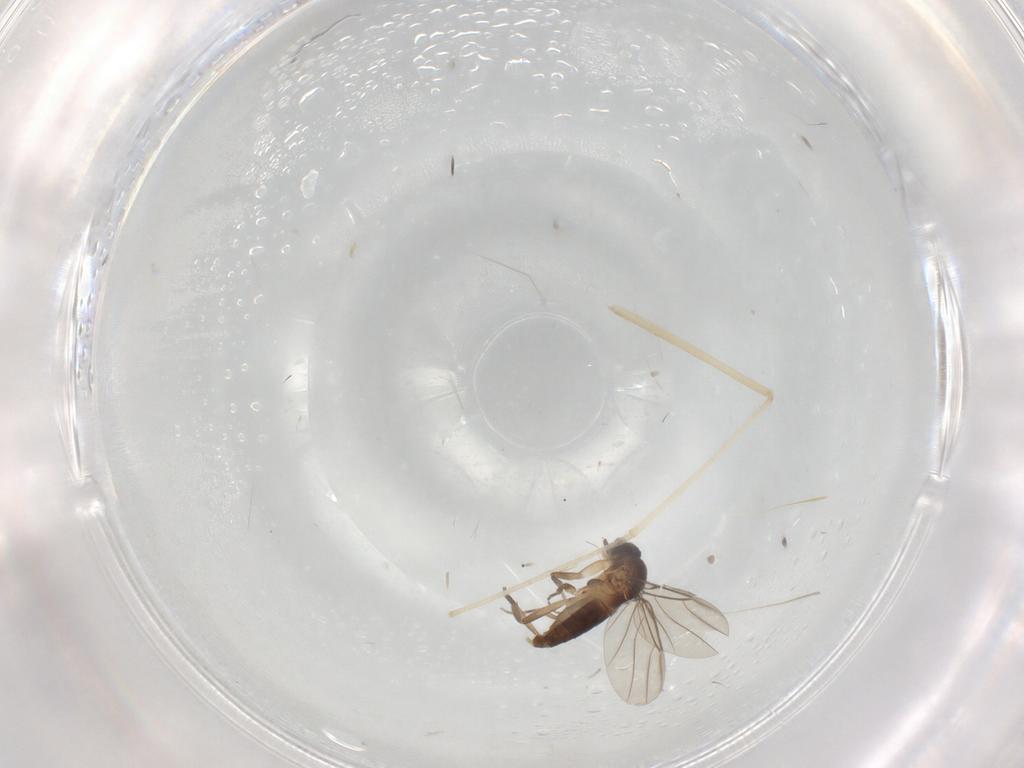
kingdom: Animalia
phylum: Arthropoda
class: Insecta
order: Diptera
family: Cecidomyiidae
